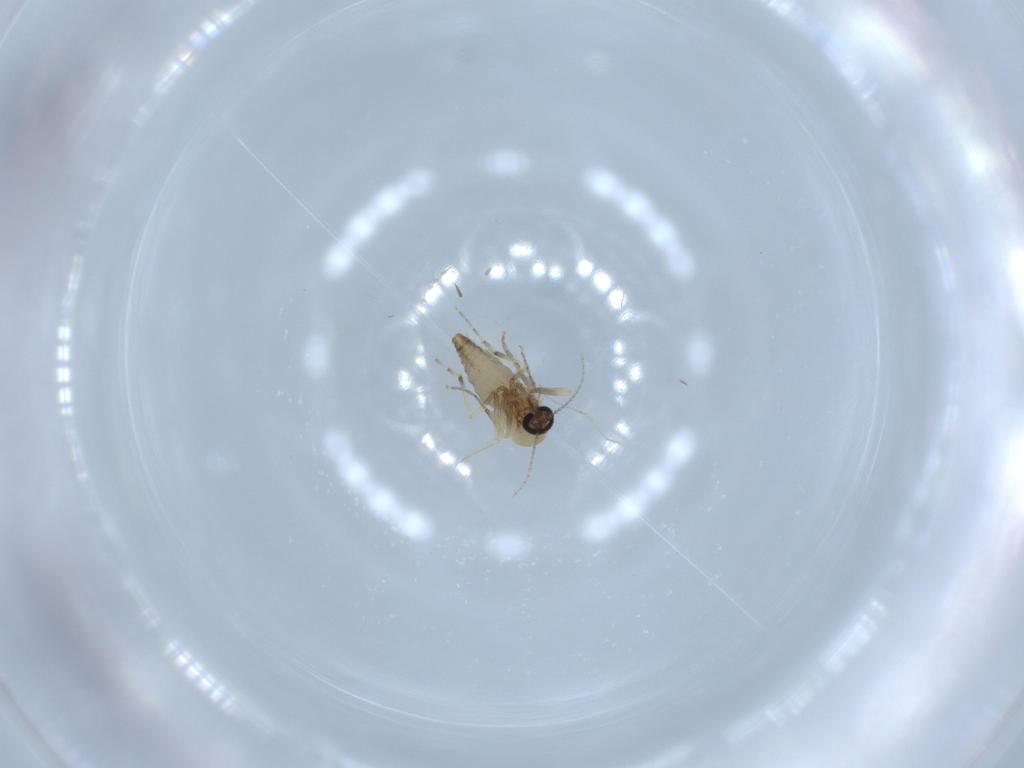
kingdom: Animalia
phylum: Arthropoda
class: Insecta
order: Diptera
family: Ceratopogonidae
